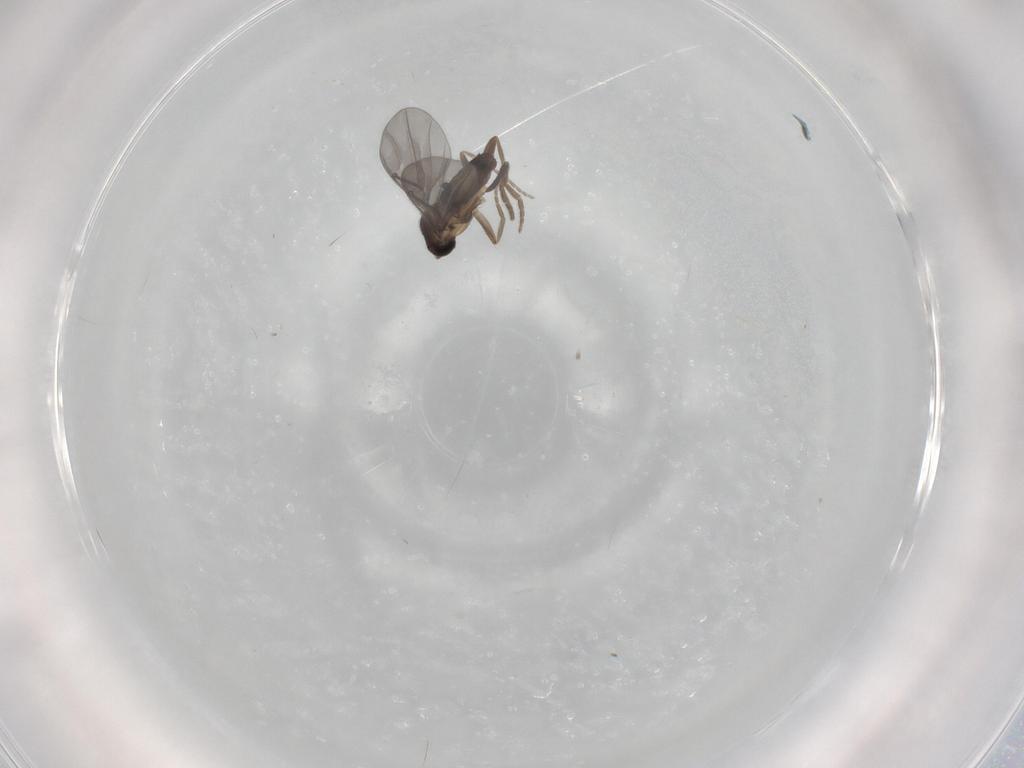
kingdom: Animalia
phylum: Arthropoda
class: Insecta
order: Diptera
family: Phoridae
